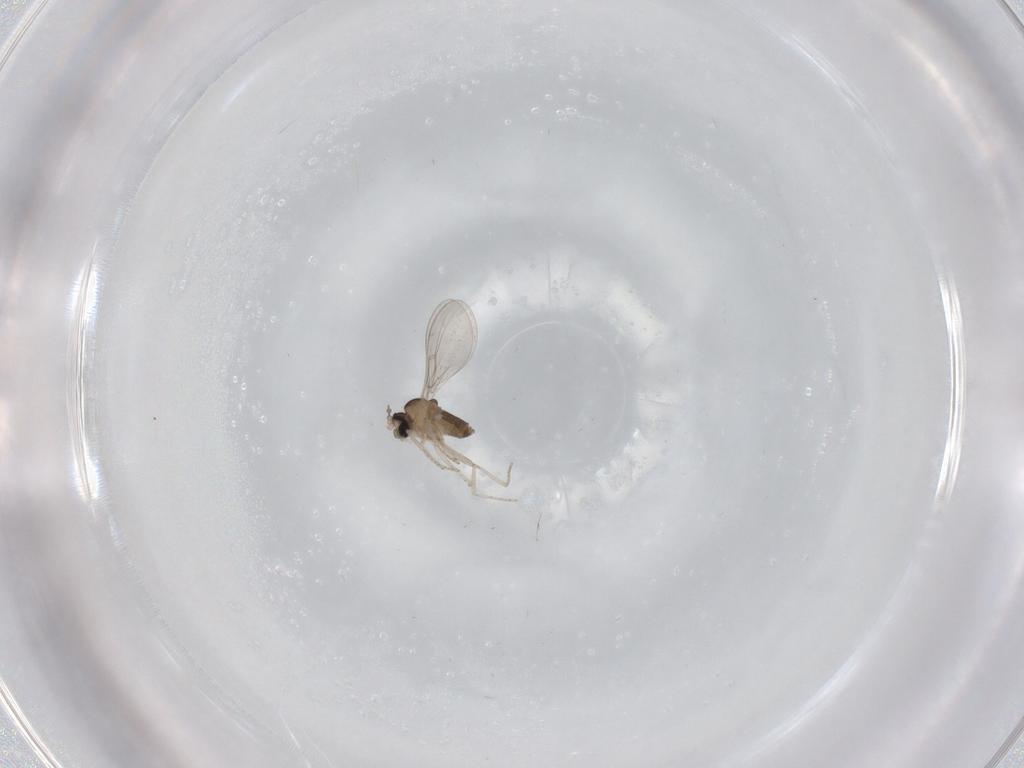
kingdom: Animalia
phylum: Arthropoda
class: Insecta
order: Diptera
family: Cecidomyiidae
